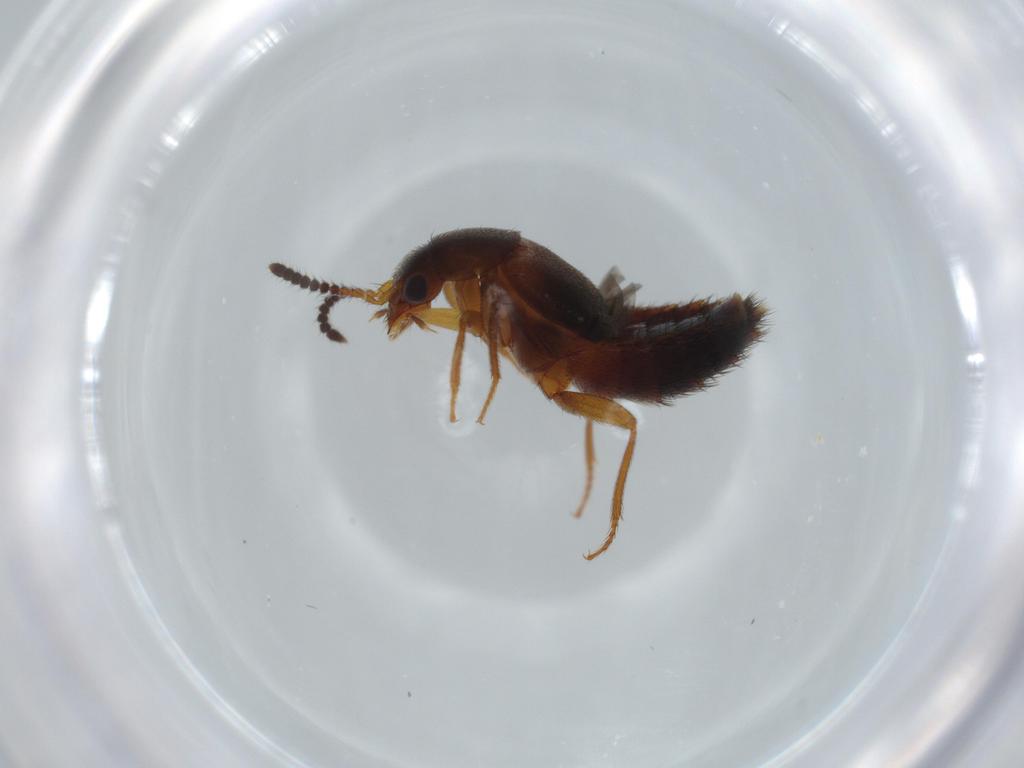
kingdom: Animalia
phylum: Arthropoda
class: Insecta
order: Coleoptera
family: Staphylinidae
